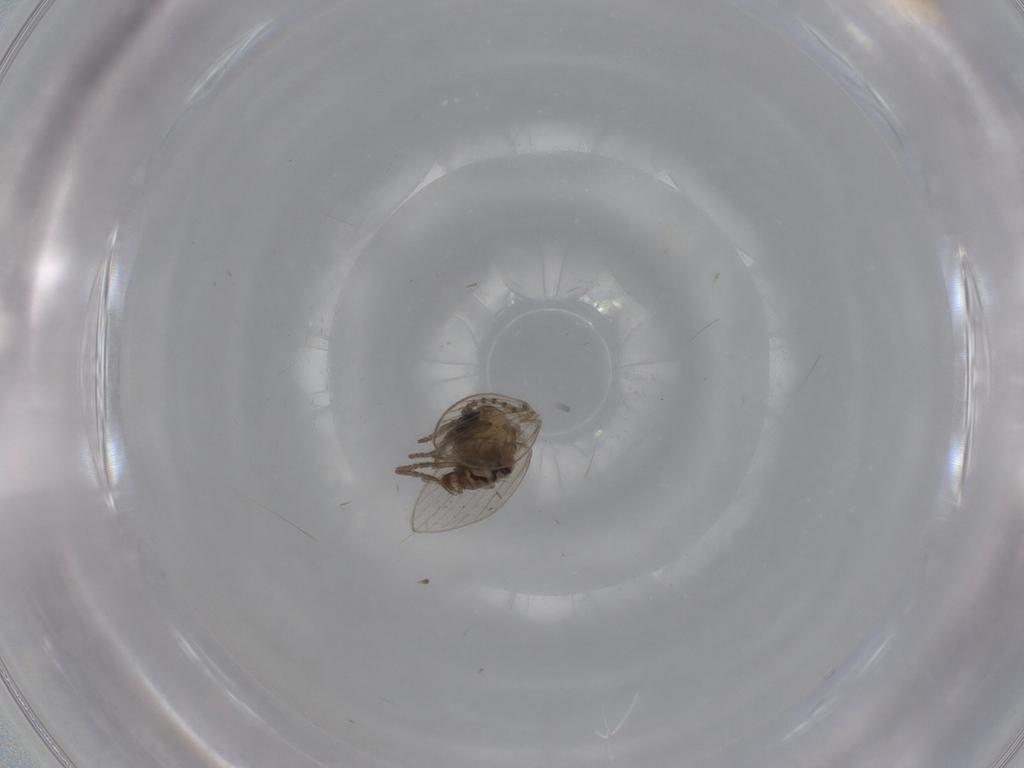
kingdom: Animalia
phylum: Arthropoda
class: Insecta
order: Diptera
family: Psychodidae
